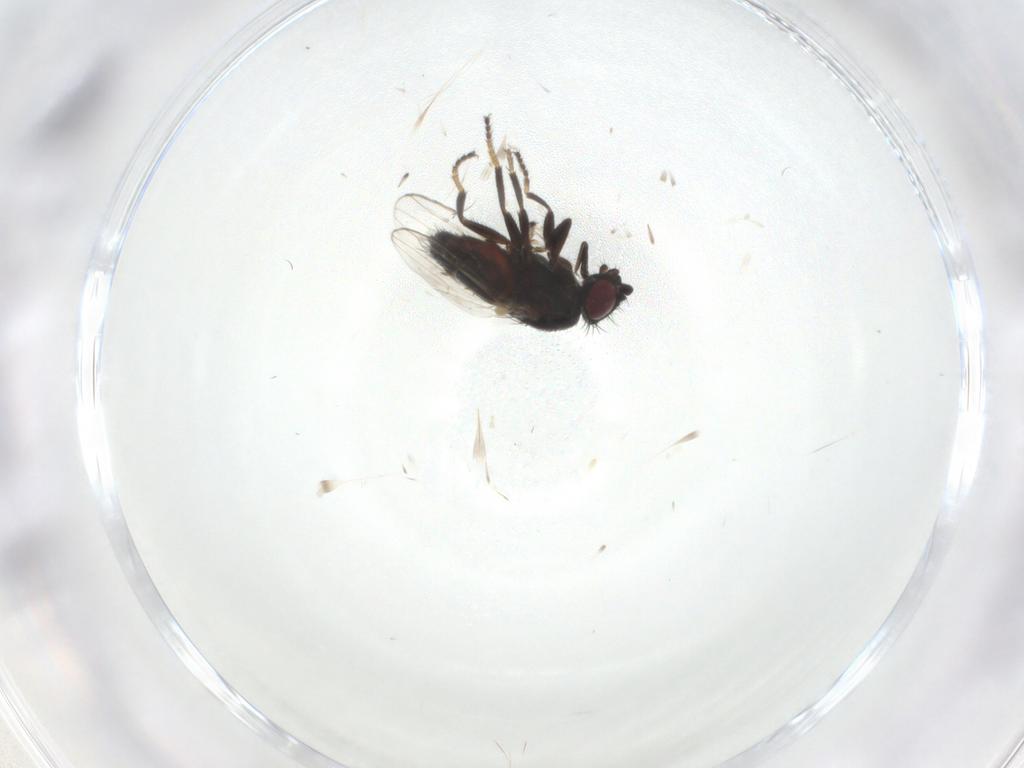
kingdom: Animalia
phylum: Arthropoda
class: Insecta
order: Diptera
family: Milichiidae
